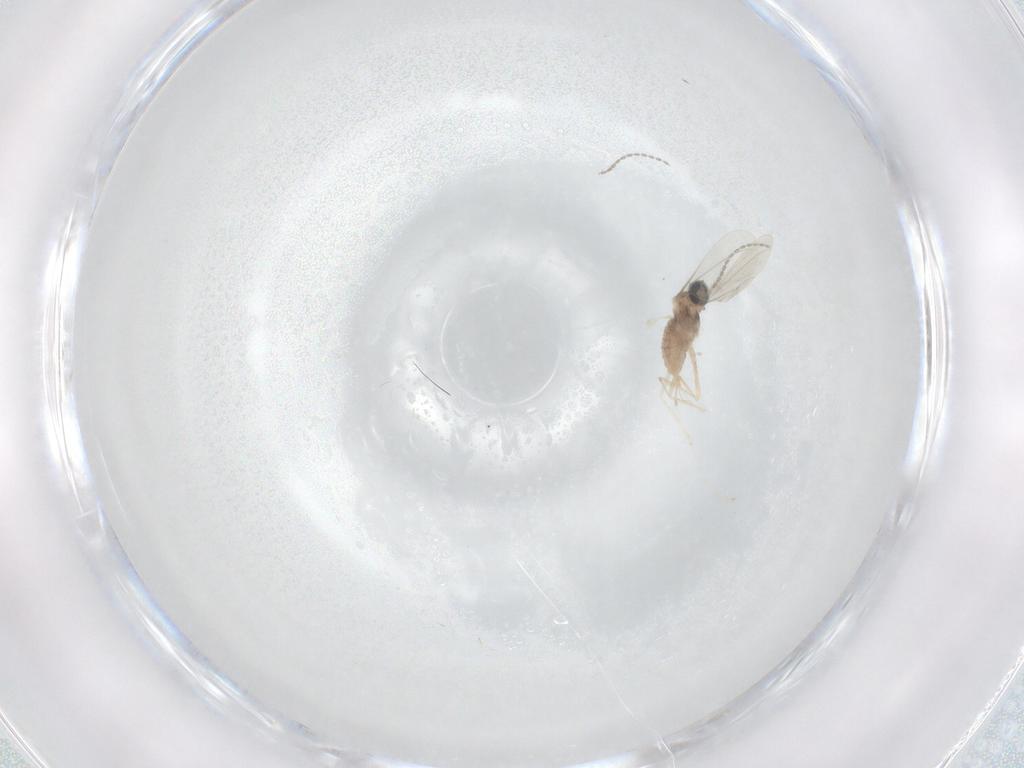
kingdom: Animalia
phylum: Arthropoda
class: Insecta
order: Diptera
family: Cecidomyiidae
